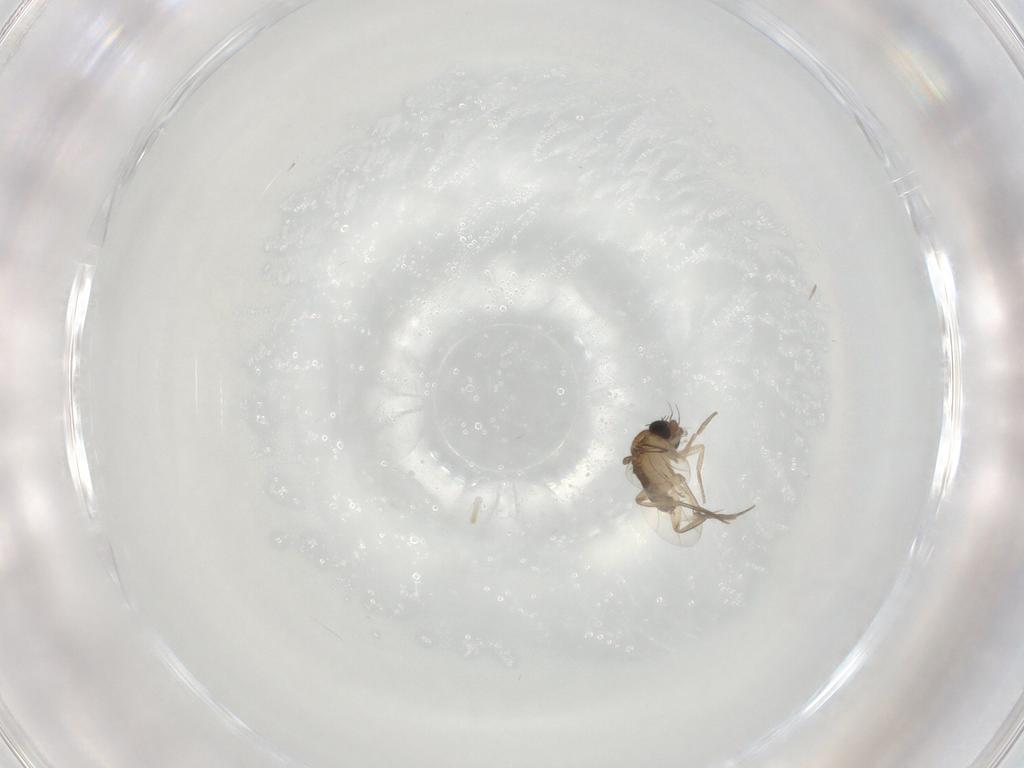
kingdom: Animalia
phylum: Arthropoda
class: Insecta
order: Diptera
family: Phoridae
